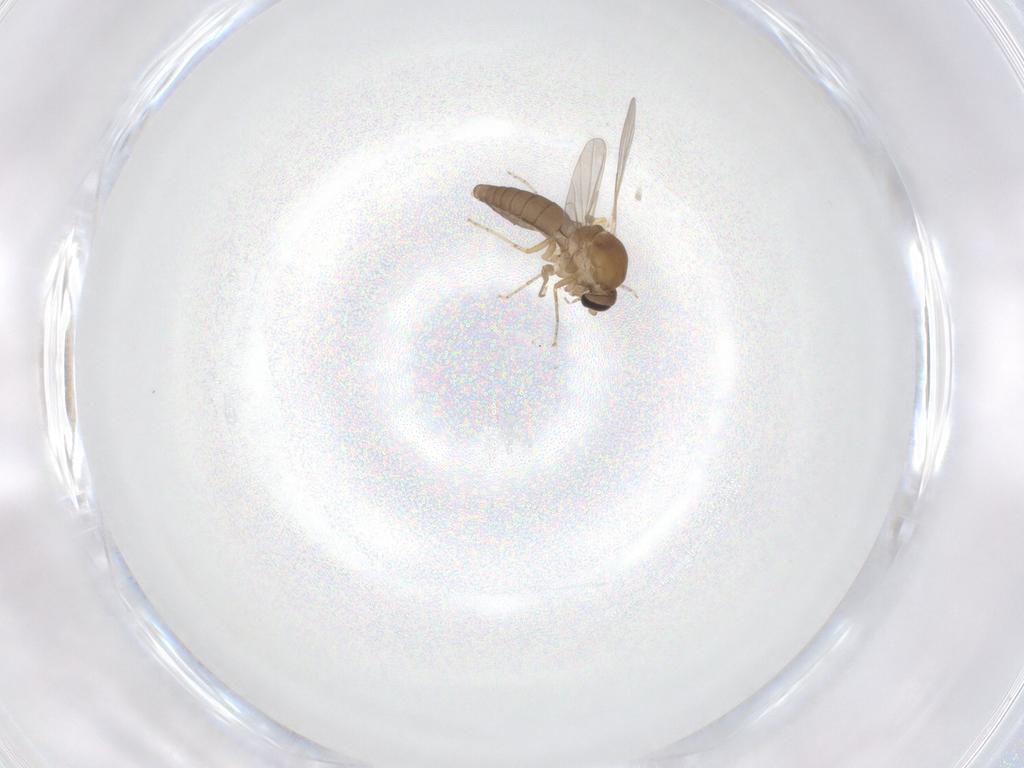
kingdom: Animalia
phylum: Arthropoda
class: Insecta
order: Diptera
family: Ceratopogonidae
